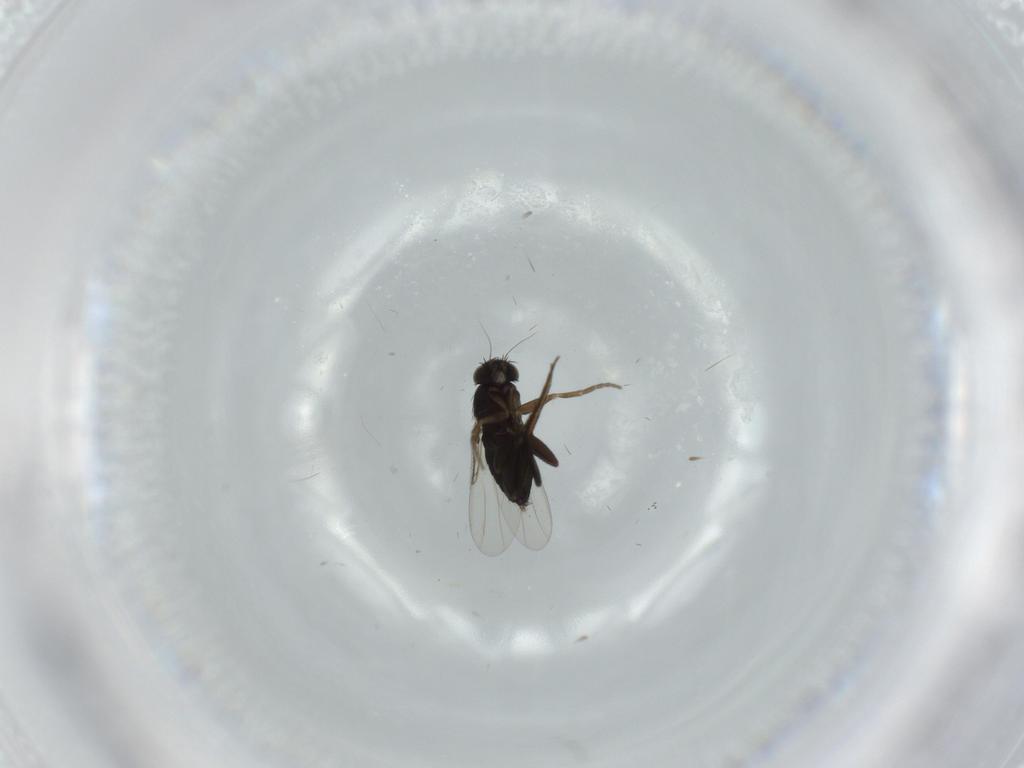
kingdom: Animalia
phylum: Arthropoda
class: Insecta
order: Diptera
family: Phoridae
